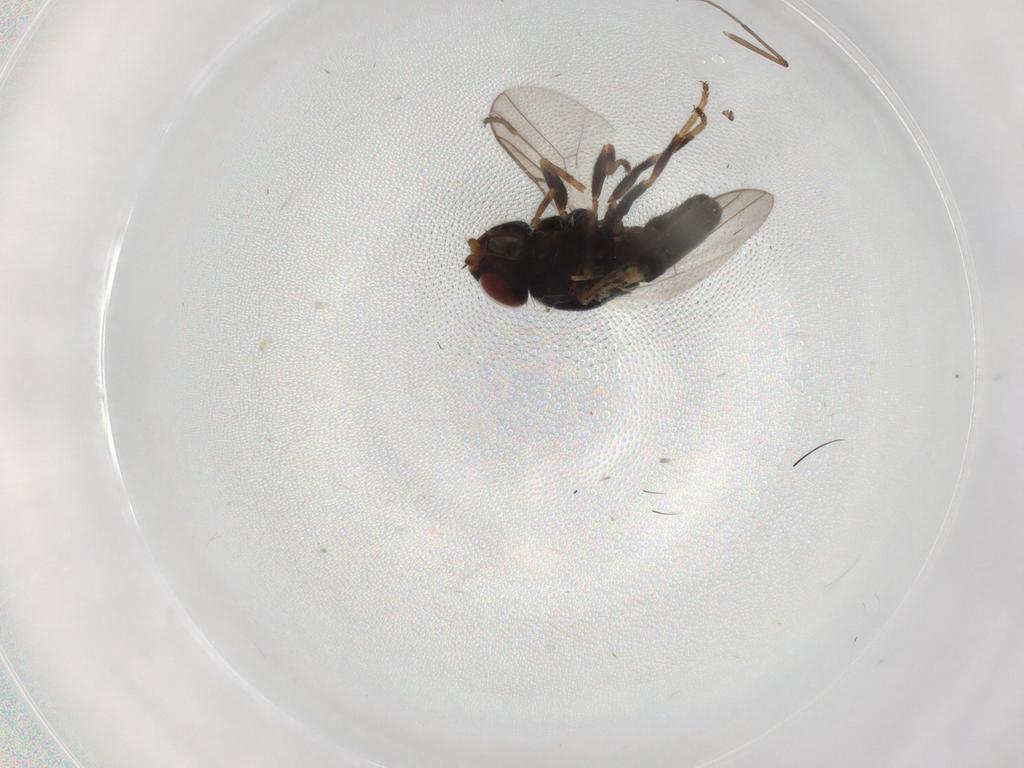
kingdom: Animalia
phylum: Arthropoda
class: Insecta
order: Diptera
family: Chloropidae
